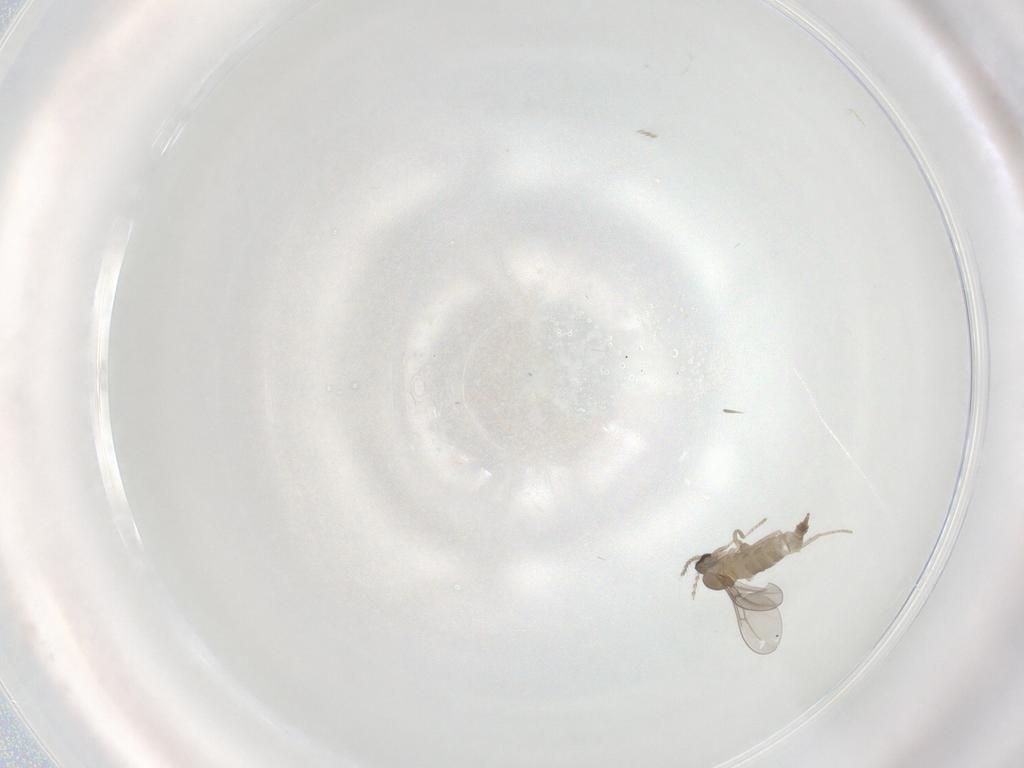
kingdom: Animalia
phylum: Arthropoda
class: Insecta
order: Diptera
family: Cecidomyiidae
